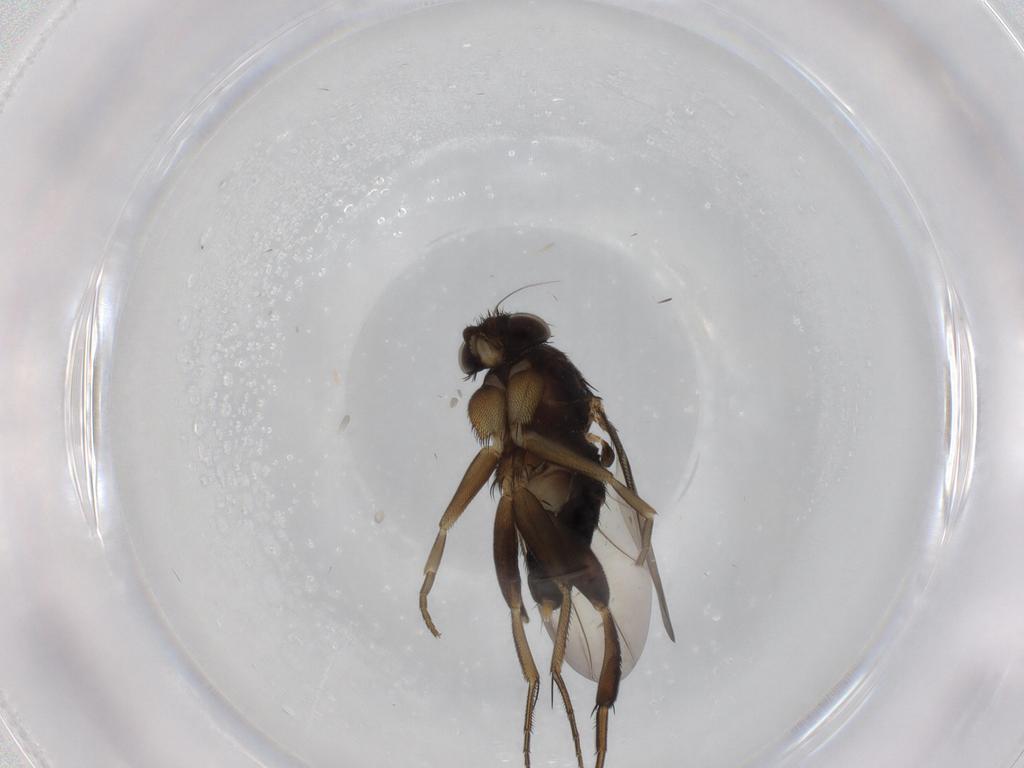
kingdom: Animalia
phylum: Arthropoda
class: Insecta
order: Diptera
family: Phoridae
